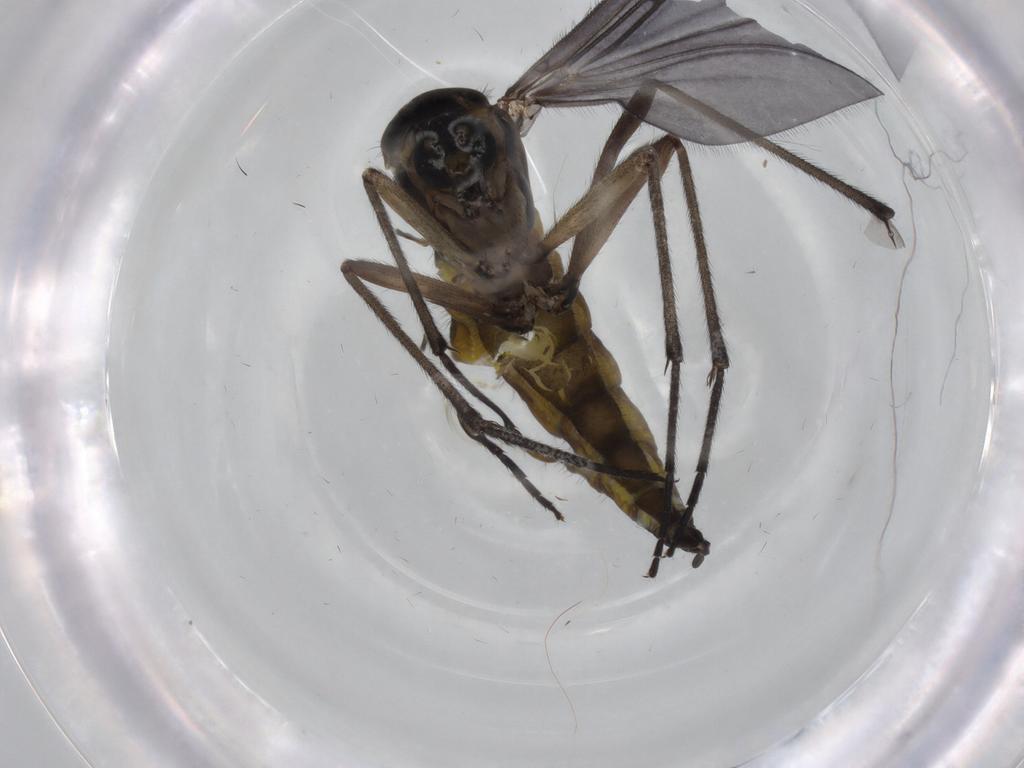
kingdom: Animalia
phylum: Arthropoda
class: Insecta
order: Diptera
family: Sciaridae
